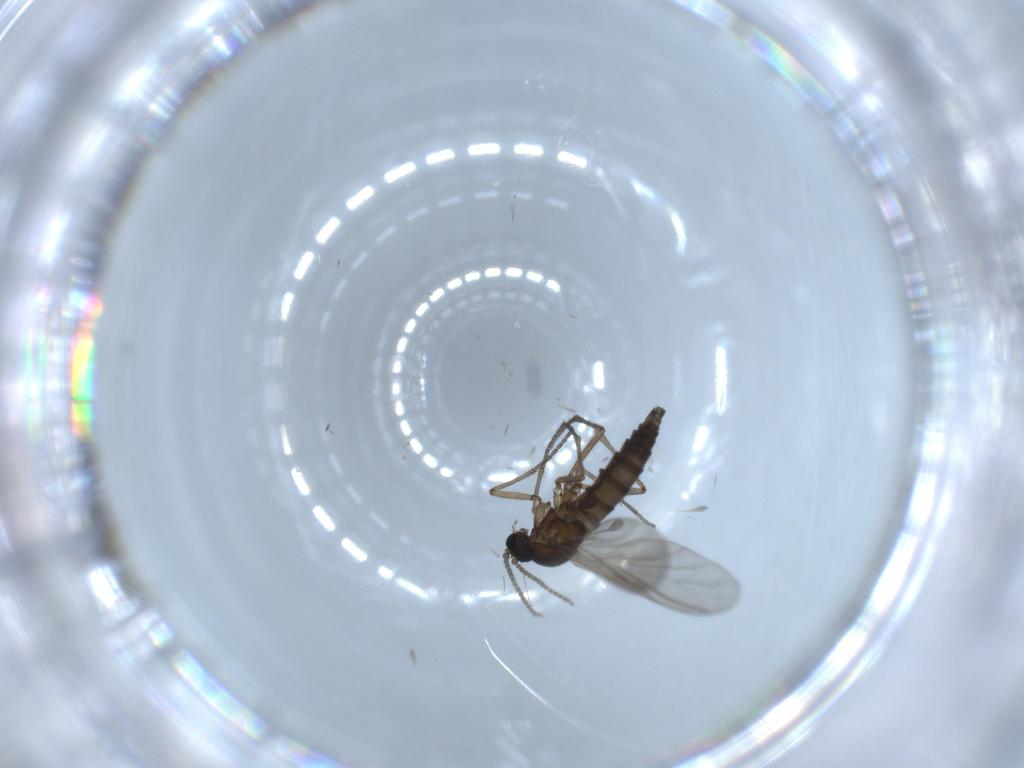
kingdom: Animalia
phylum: Arthropoda
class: Insecta
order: Diptera
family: Sciaridae
